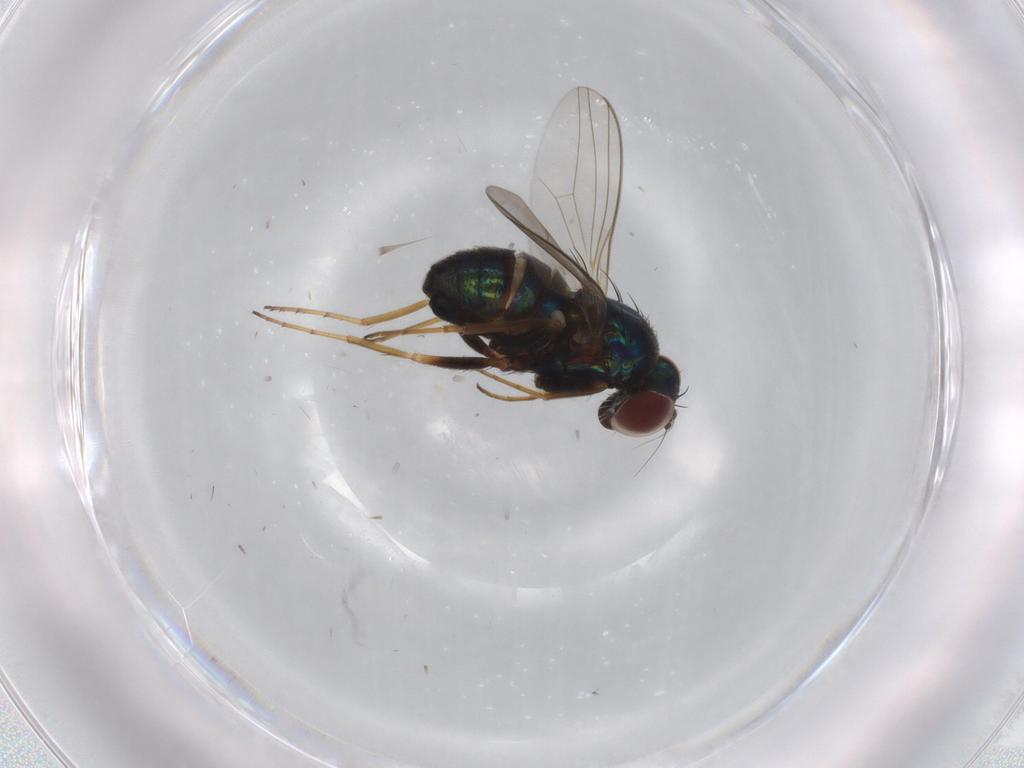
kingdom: Animalia
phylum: Arthropoda
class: Insecta
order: Diptera
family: Dolichopodidae
